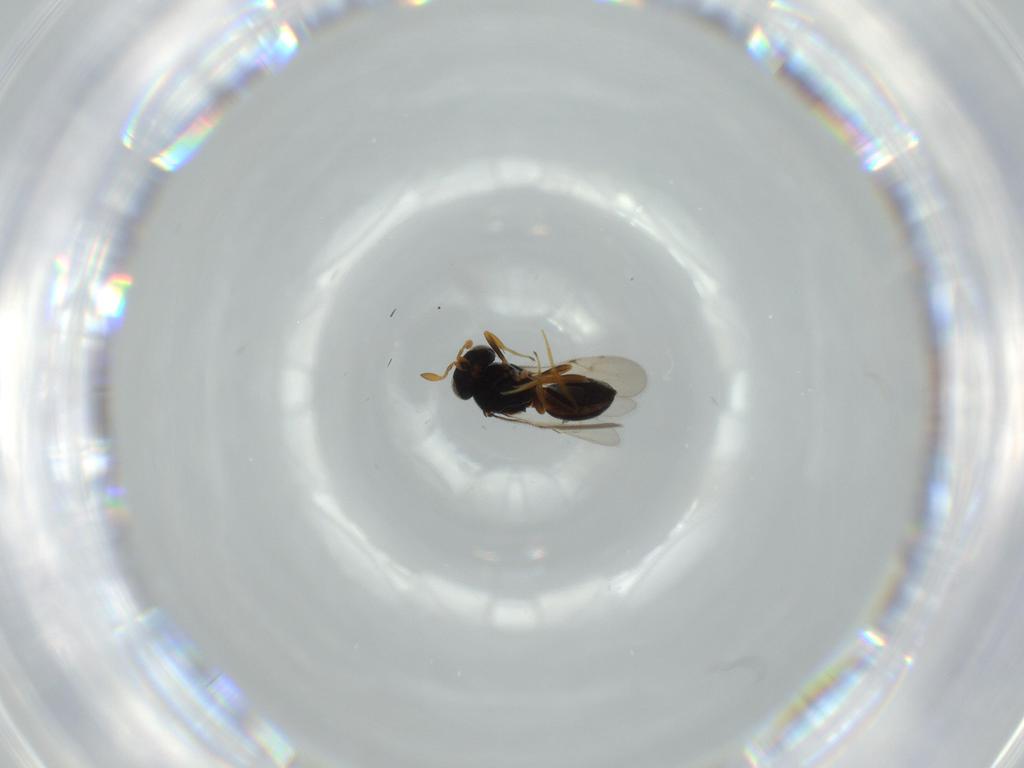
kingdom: Animalia
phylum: Arthropoda
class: Insecta
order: Hymenoptera
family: Scelionidae
